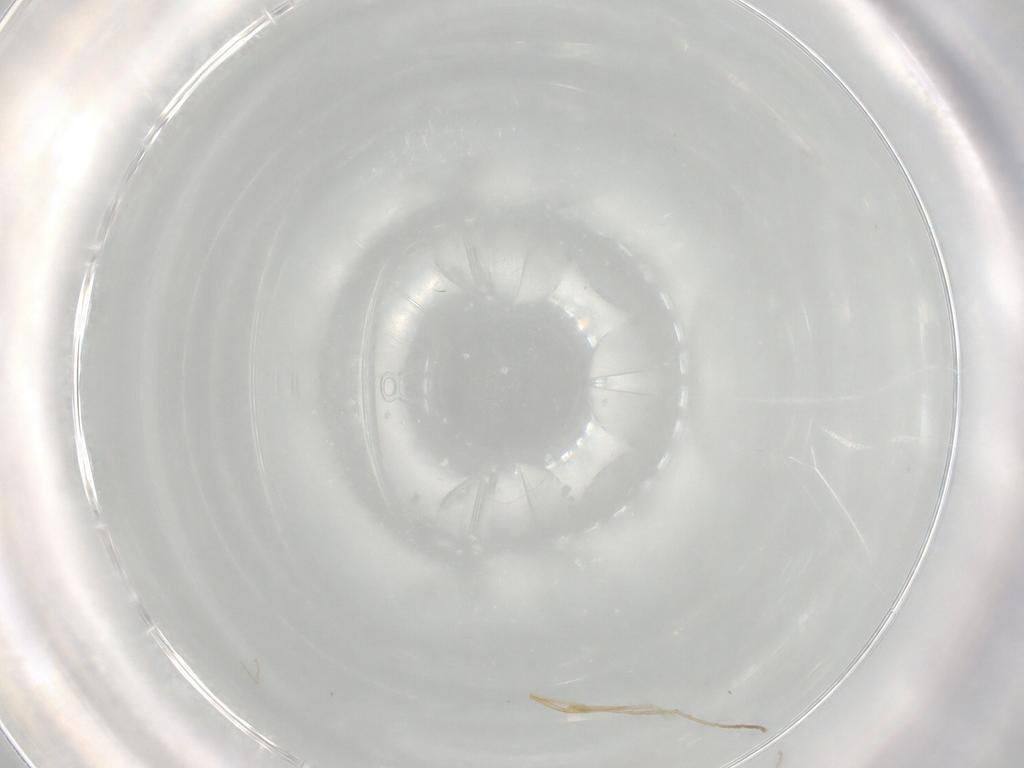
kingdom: Animalia
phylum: Arthropoda
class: Insecta
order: Diptera
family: Chironomidae
